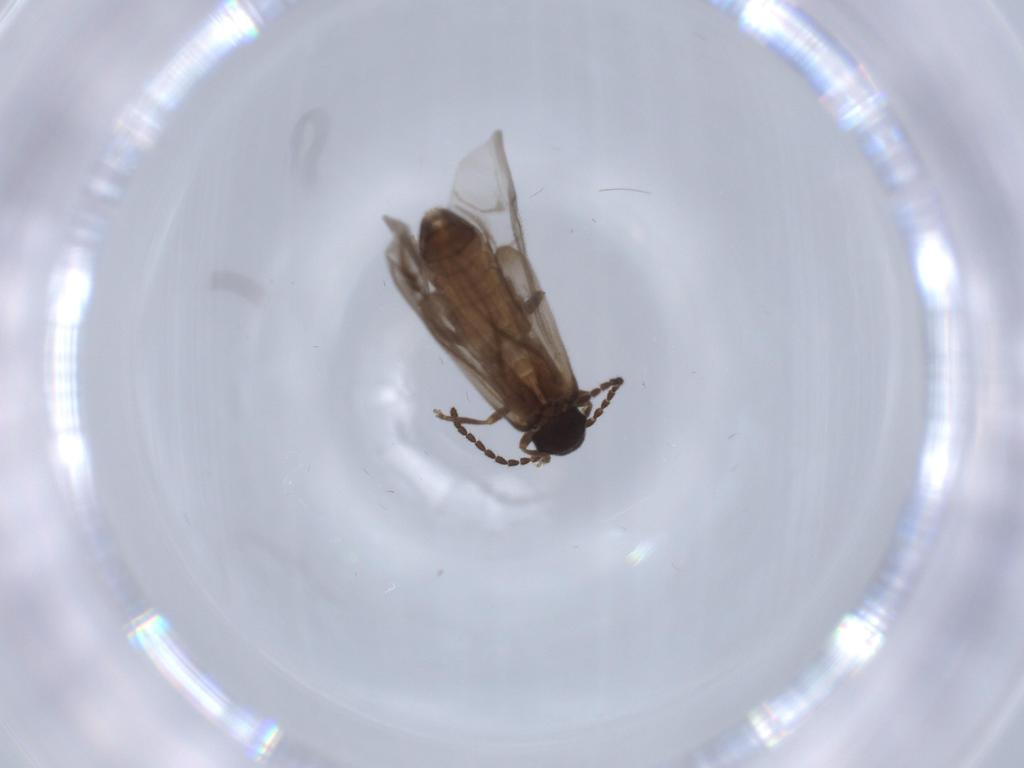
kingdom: Animalia
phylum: Arthropoda
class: Insecta
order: Coleoptera
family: Cantharidae
